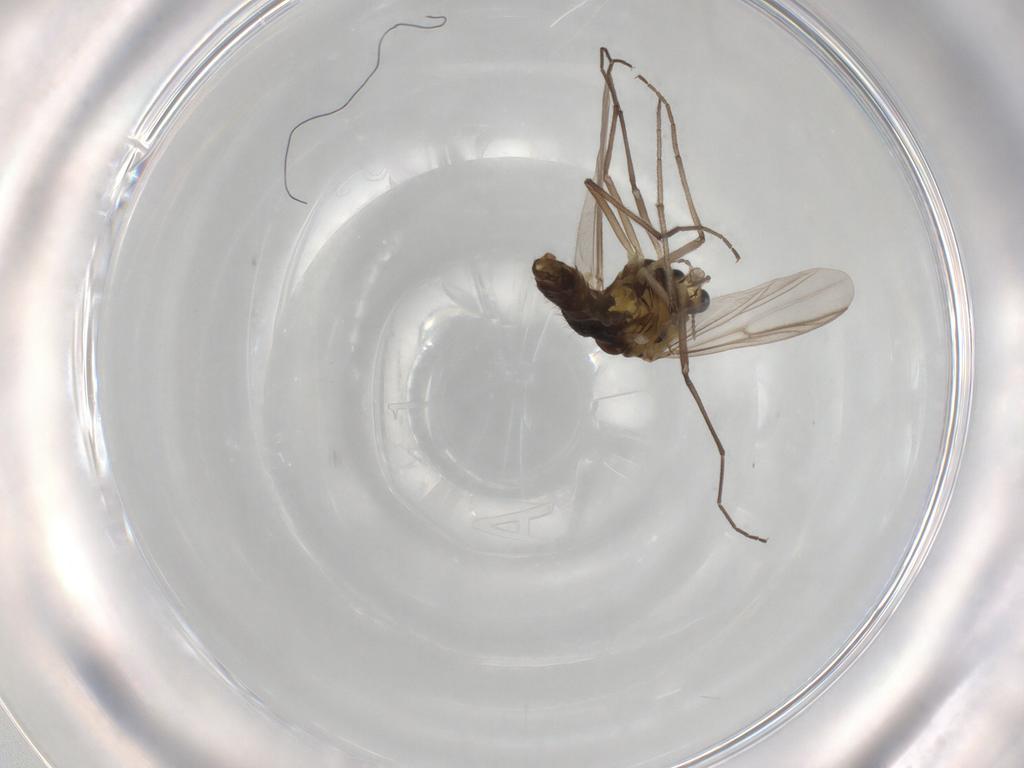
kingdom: Animalia
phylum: Arthropoda
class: Insecta
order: Diptera
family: Chironomidae
